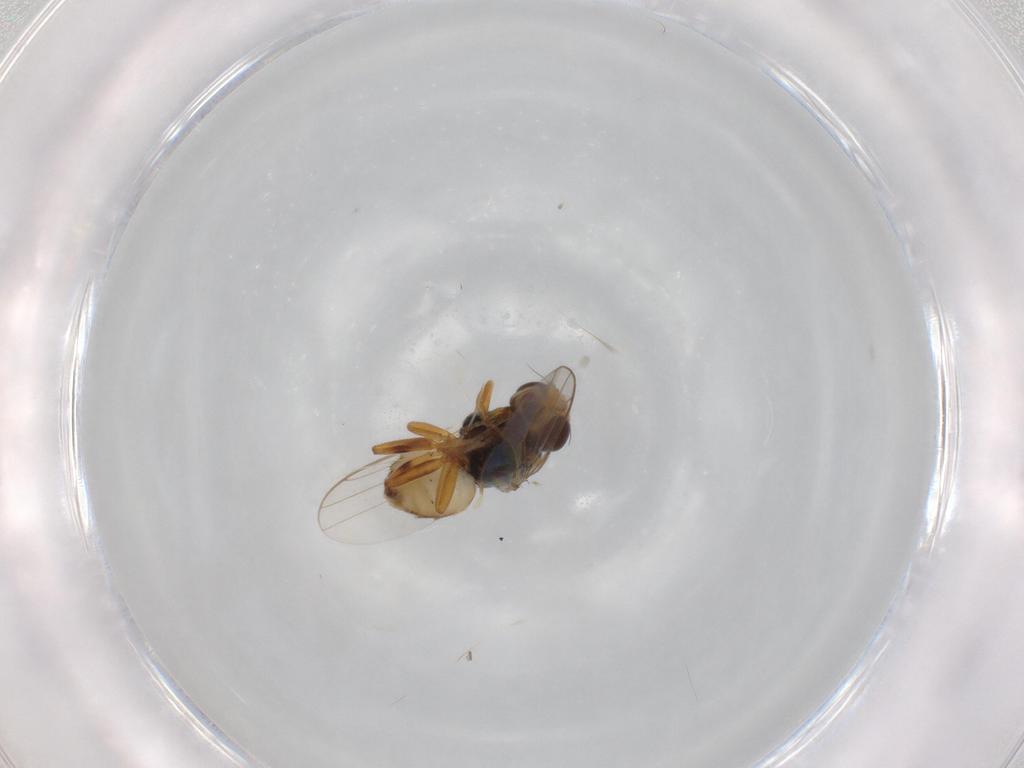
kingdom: Animalia
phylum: Arthropoda
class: Insecta
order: Diptera
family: Chloropidae
